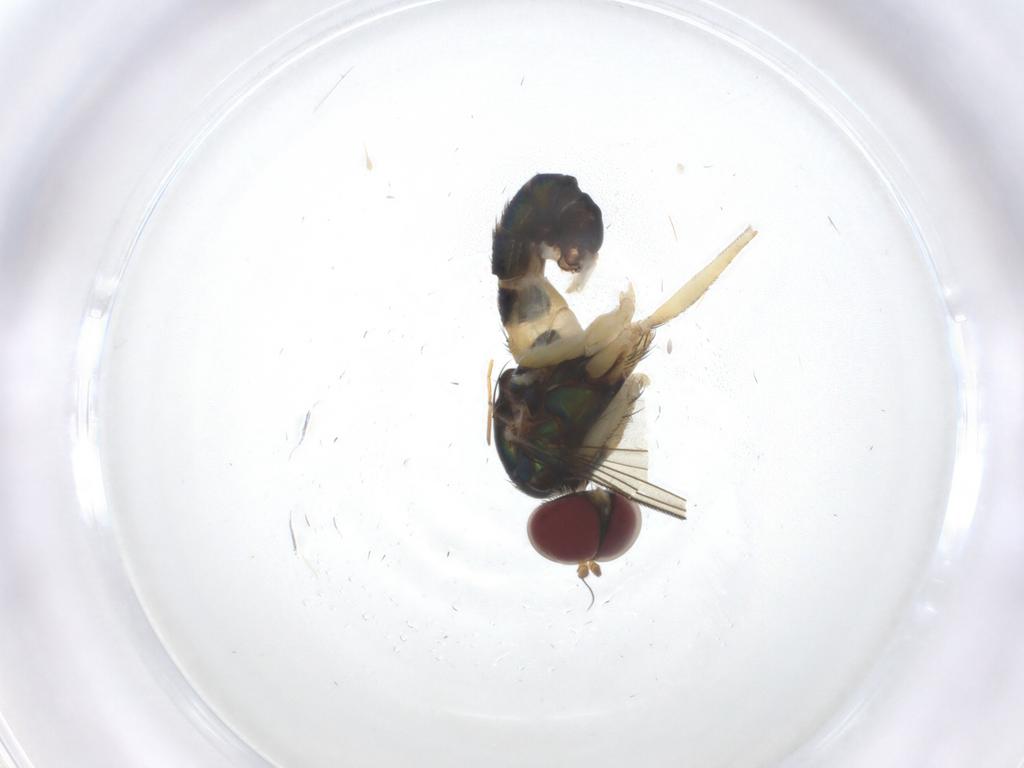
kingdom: Animalia
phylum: Arthropoda
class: Insecta
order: Diptera
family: Dolichopodidae
